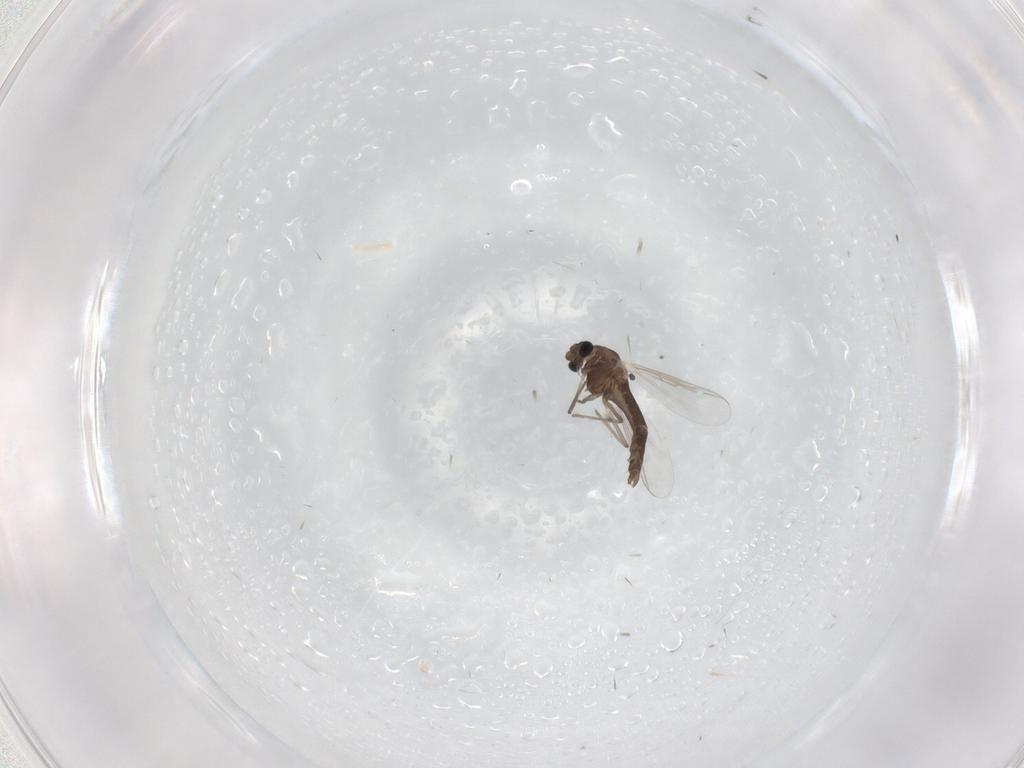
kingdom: Animalia
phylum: Arthropoda
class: Insecta
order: Diptera
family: Chironomidae
